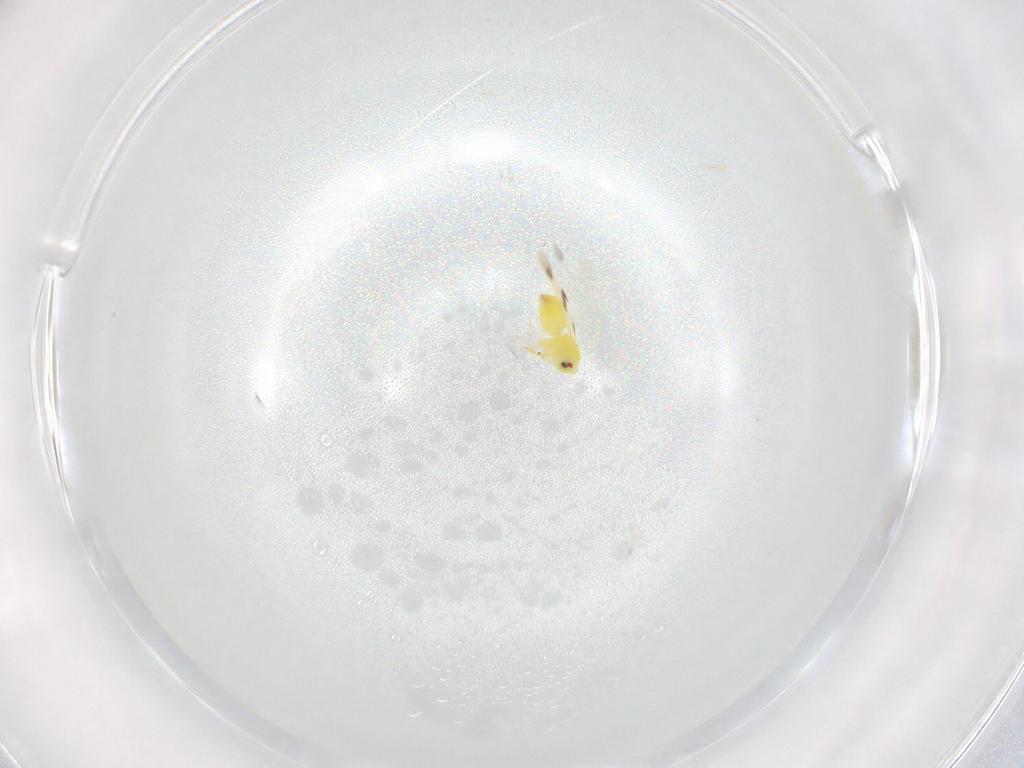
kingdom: Animalia
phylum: Arthropoda
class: Insecta
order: Hemiptera
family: Aleyrodidae
